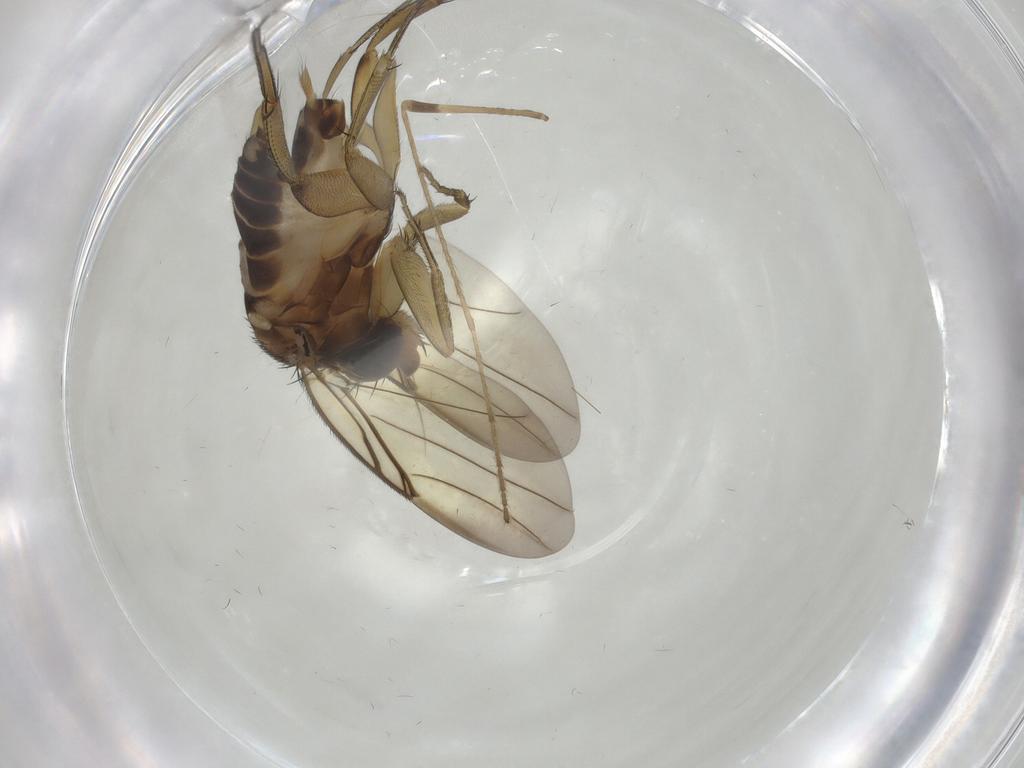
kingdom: Animalia
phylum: Arthropoda
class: Insecta
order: Diptera
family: Phoridae
